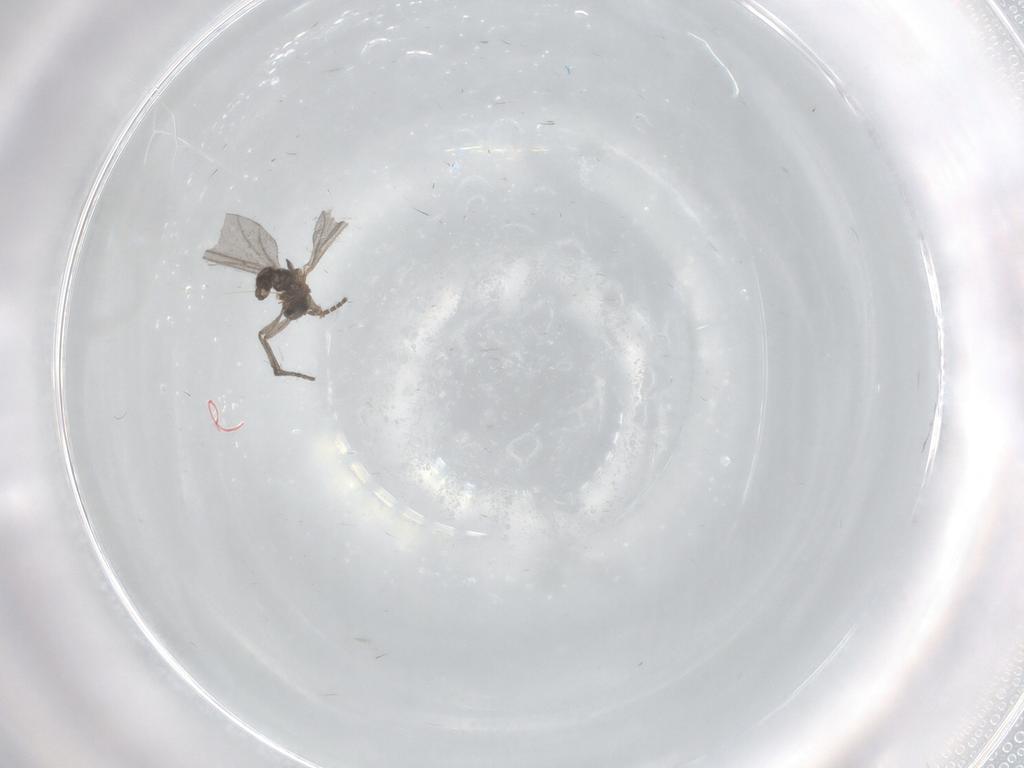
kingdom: Animalia
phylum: Arthropoda
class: Insecta
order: Diptera
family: Sciaridae
